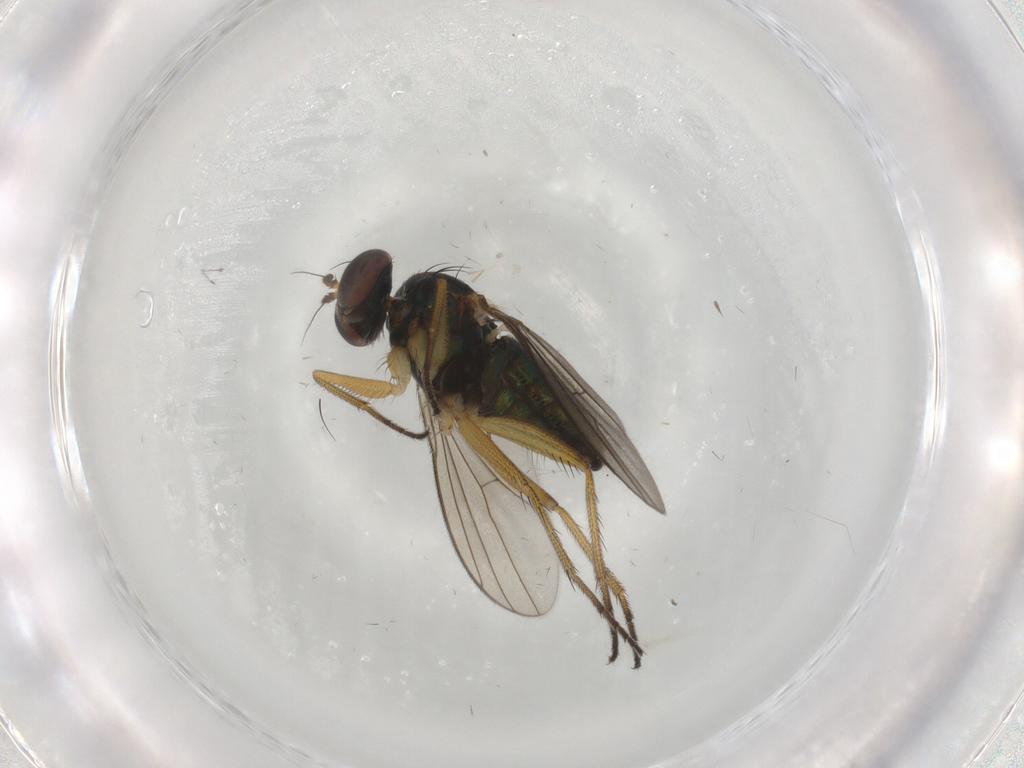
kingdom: Animalia
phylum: Arthropoda
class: Insecta
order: Diptera
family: Dolichopodidae
